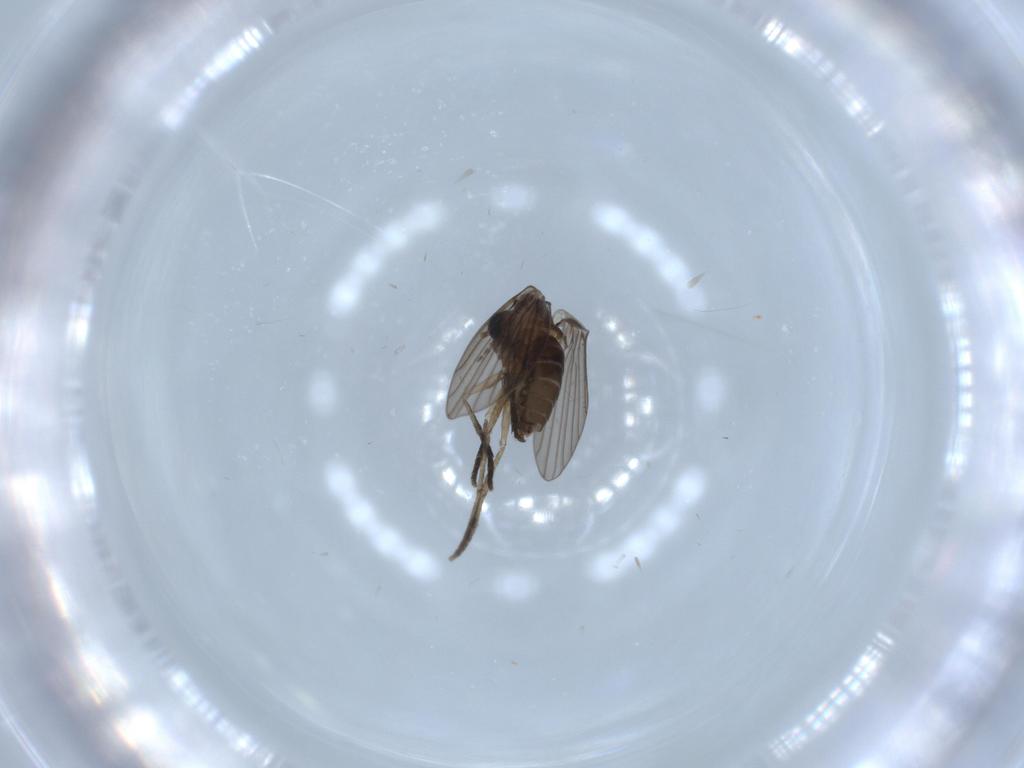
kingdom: Animalia
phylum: Arthropoda
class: Insecta
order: Diptera
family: Psychodidae
